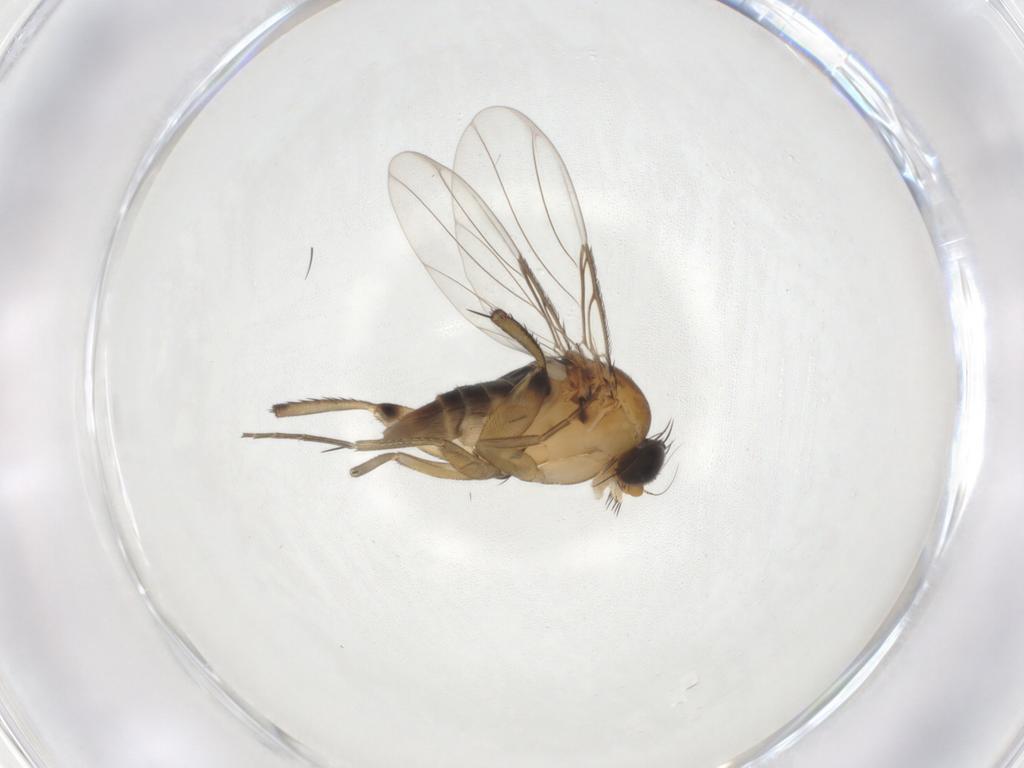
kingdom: Animalia
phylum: Arthropoda
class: Insecta
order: Diptera
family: Phoridae
